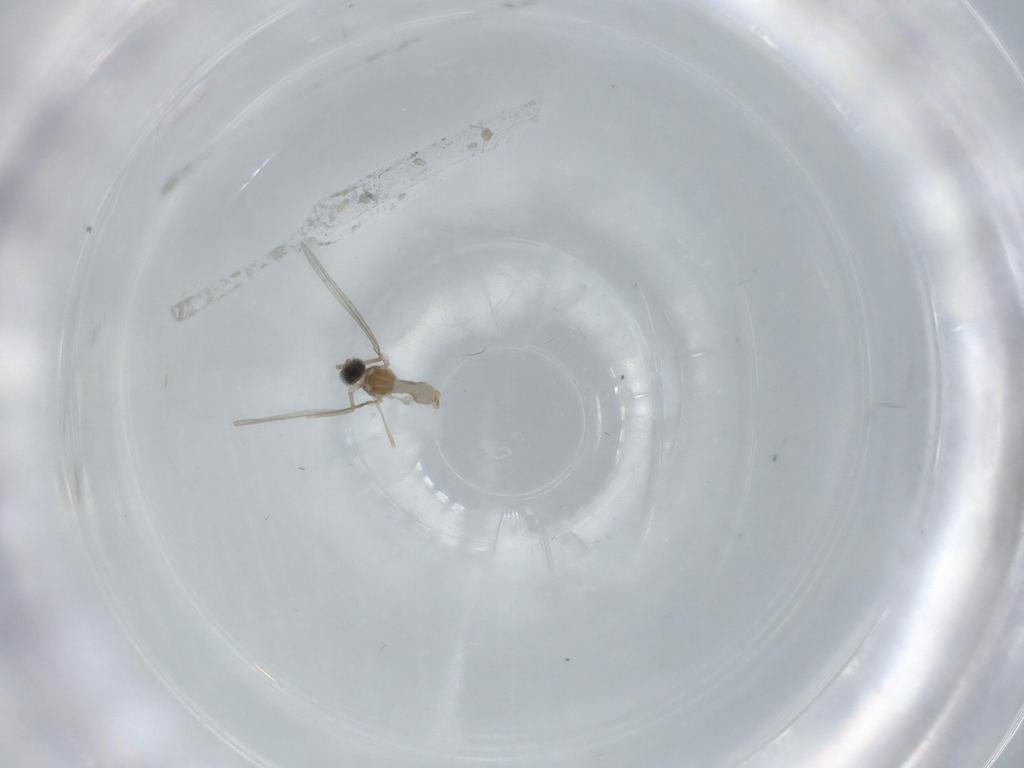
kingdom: Animalia
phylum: Arthropoda
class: Insecta
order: Diptera
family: Cecidomyiidae
